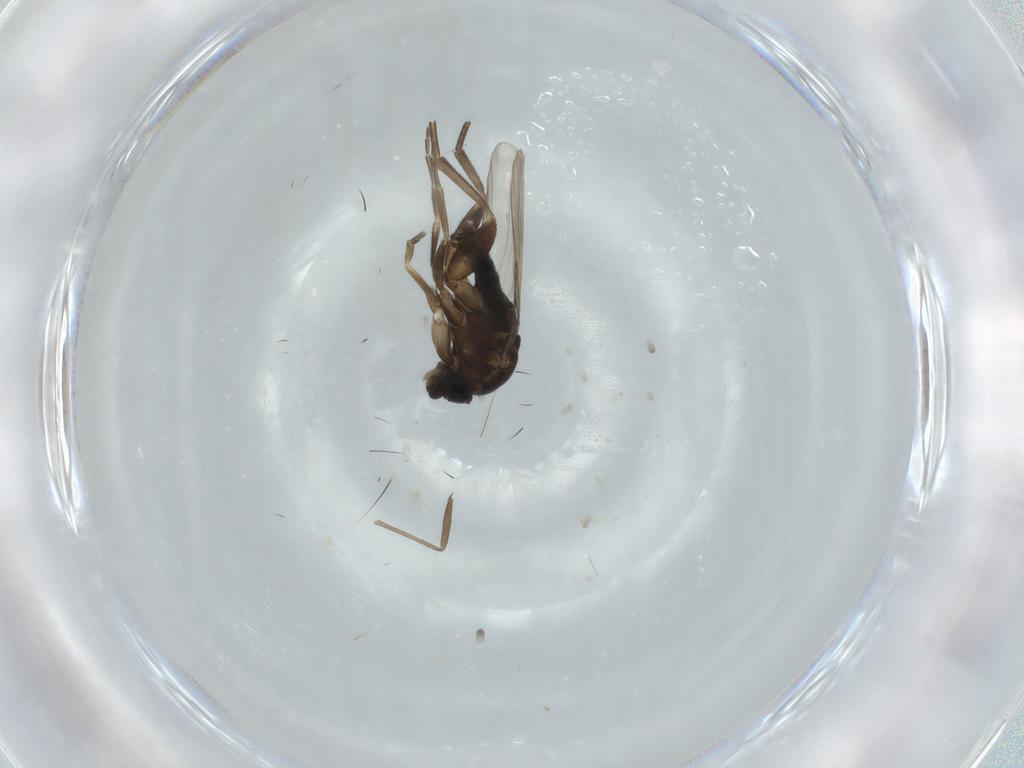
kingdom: Animalia
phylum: Arthropoda
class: Insecta
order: Diptera
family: Phoridae
